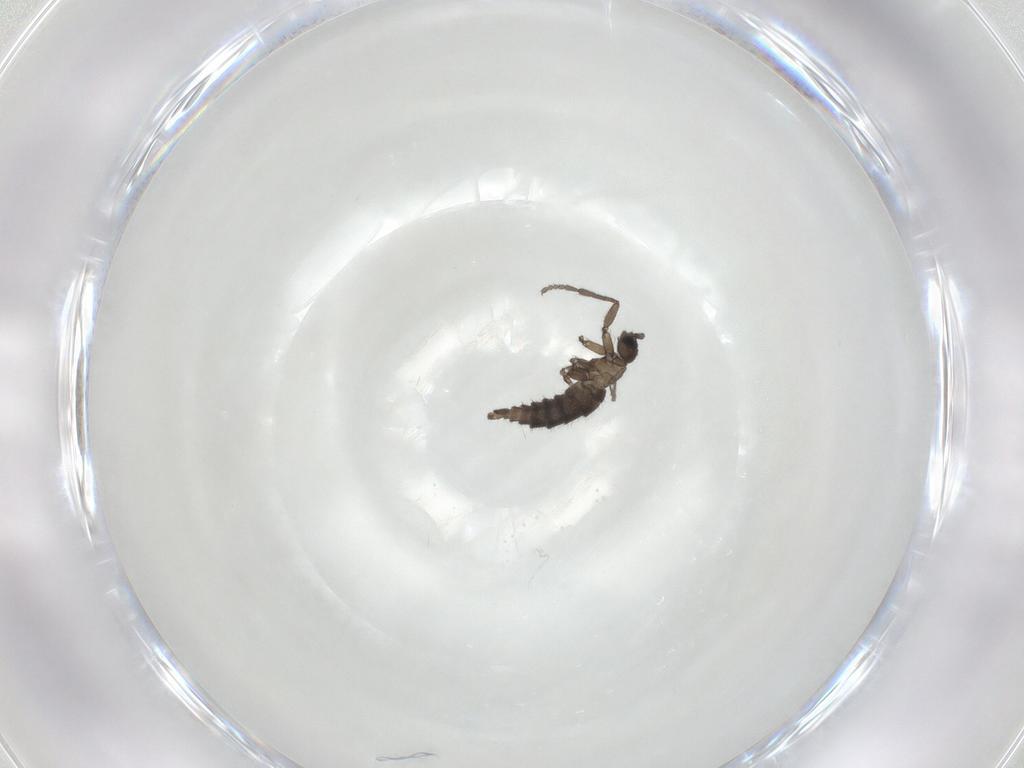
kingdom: Animalia
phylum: Arthropoda
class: Insecta
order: Diptera
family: Sciaridae
